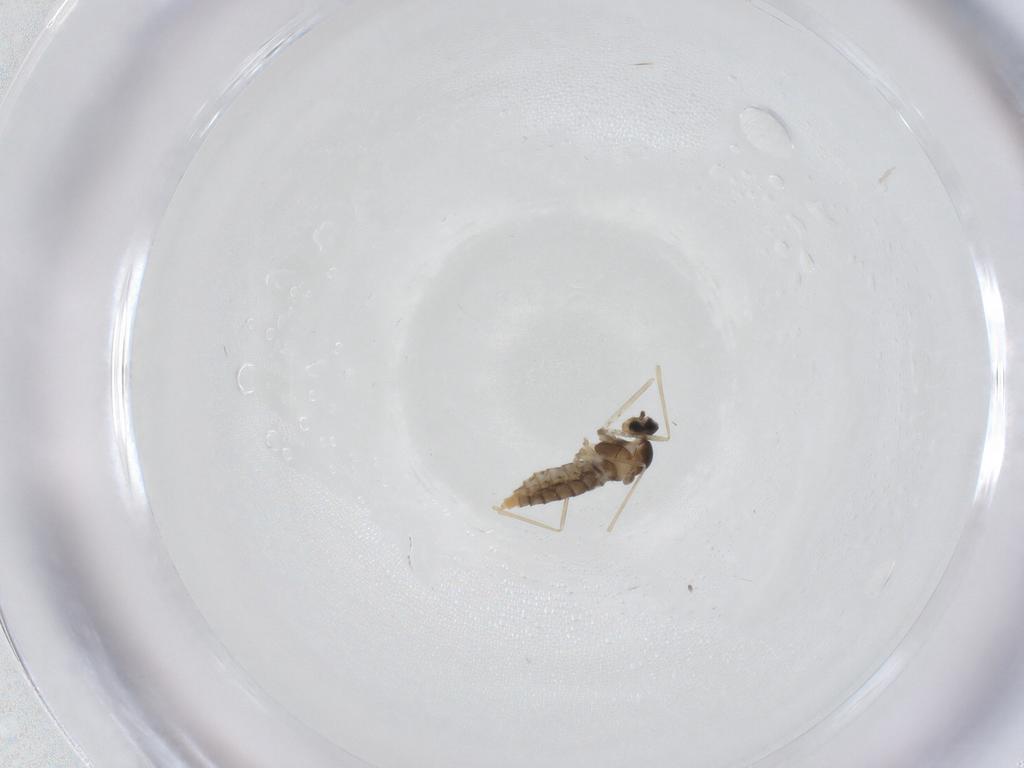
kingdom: Animalia
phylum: Arthropoda
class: Insecta
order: Diptera
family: Cecidomyiidae
